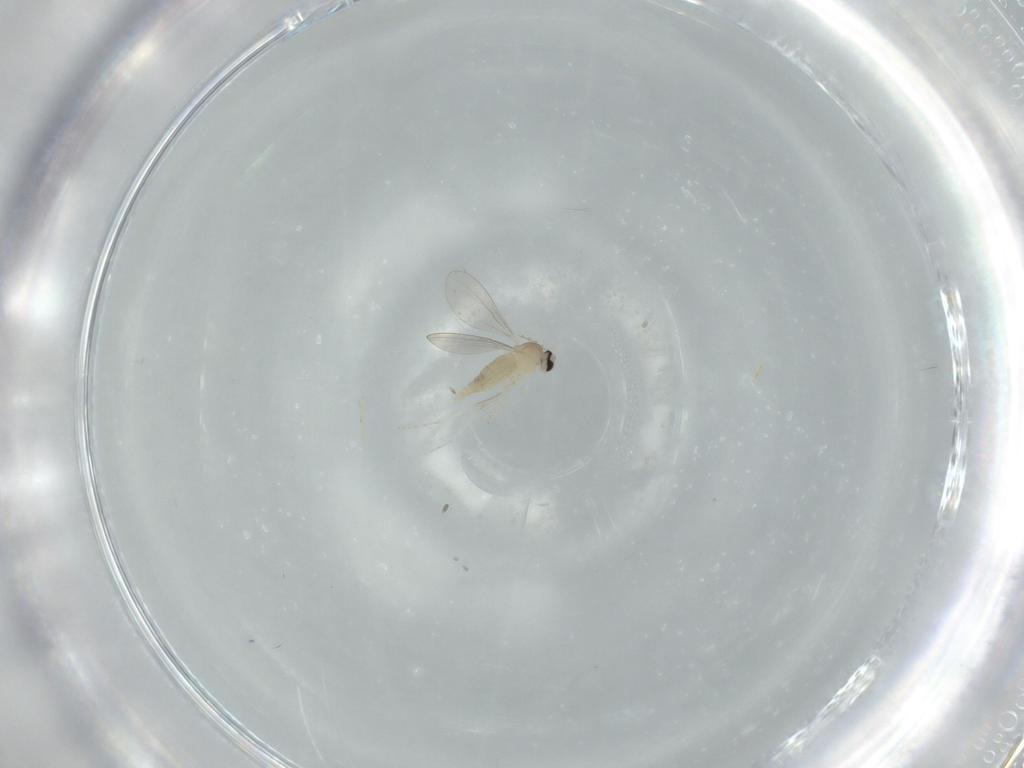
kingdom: Animalia
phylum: Arthropoda
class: Insecta
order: Diptera
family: Cecidomyiidae
